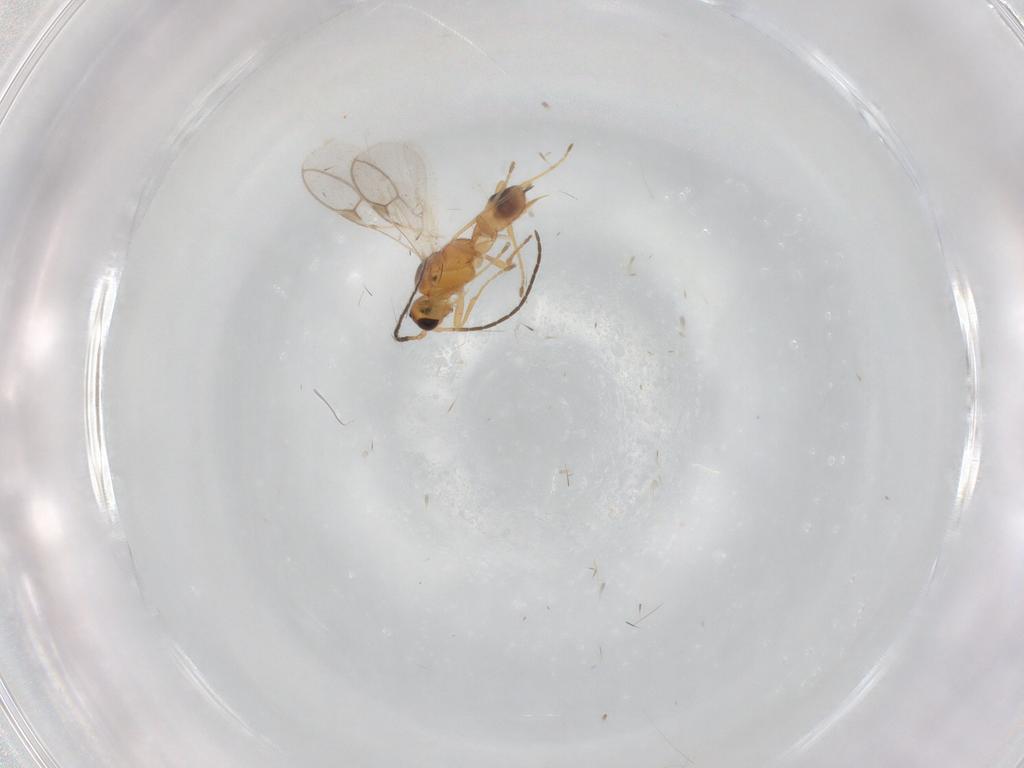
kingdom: Animalia
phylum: Arthropoda
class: Insecta
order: Hymenoptera
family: Braconidae
